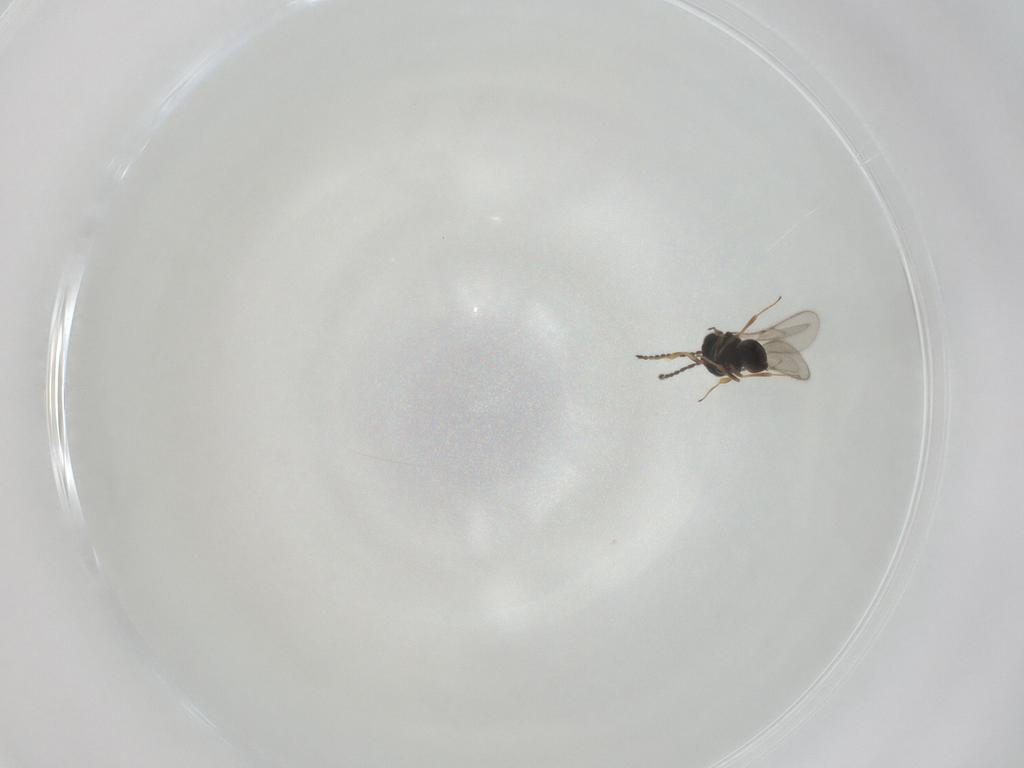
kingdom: Animalia
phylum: Arthropoda
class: Insecta
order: Hymenoptera
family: Scelionidae
